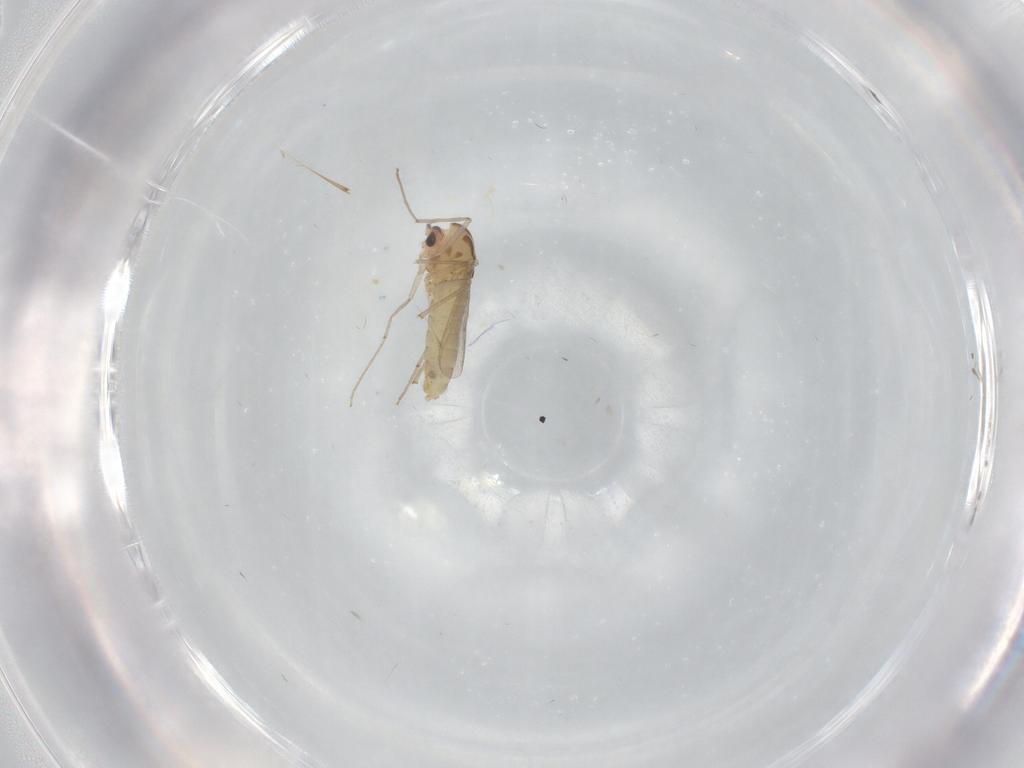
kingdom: Animalia
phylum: Arthropoda
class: Insecta
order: Diptera
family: Chironomidae
